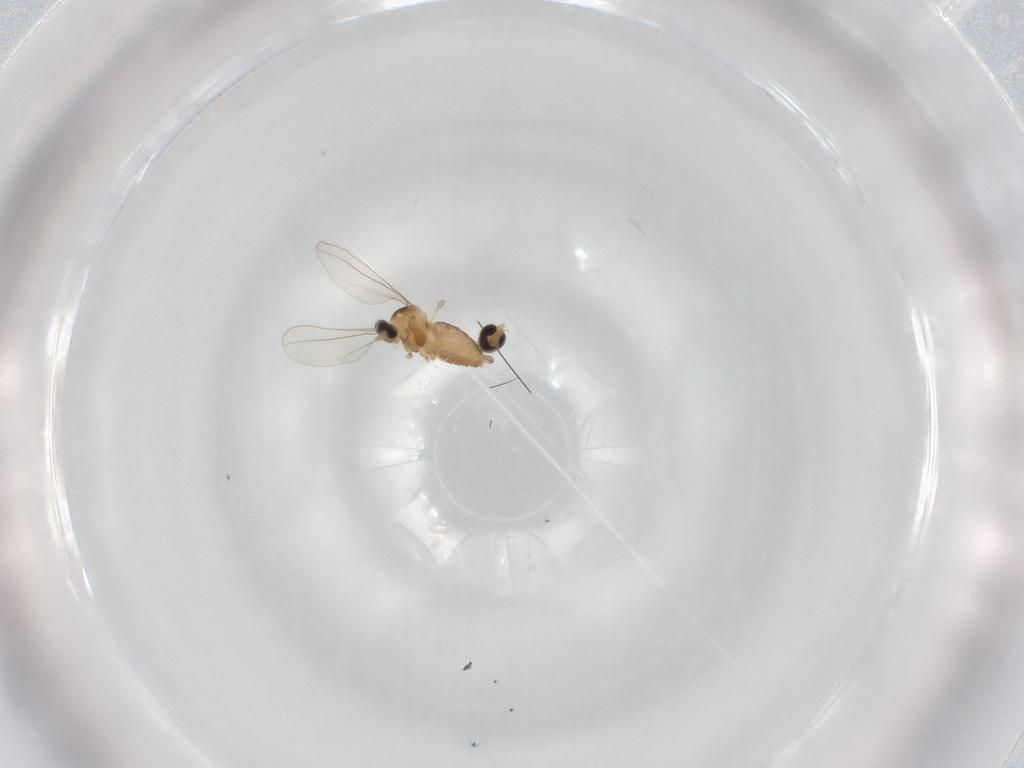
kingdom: Animalia
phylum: Arthropoda
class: Insecta
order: Diptera
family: Cecidomyiidae
